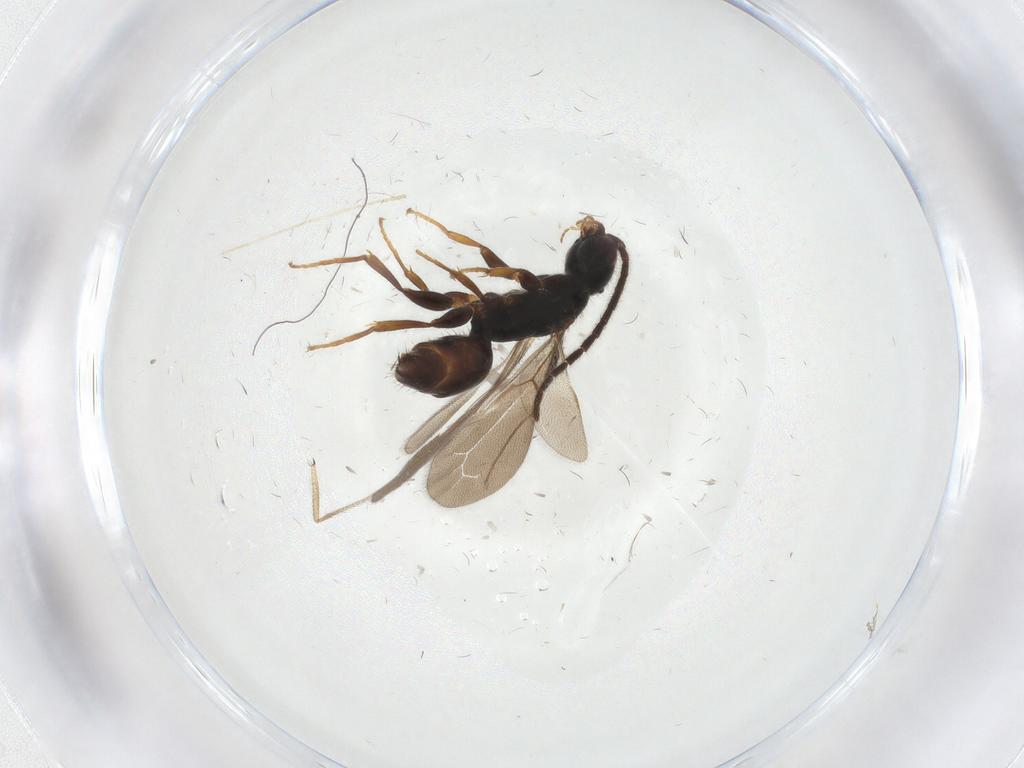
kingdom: Animalia
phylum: Arthropoda
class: Insecta
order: Hymenoptera
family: Bethylidae
